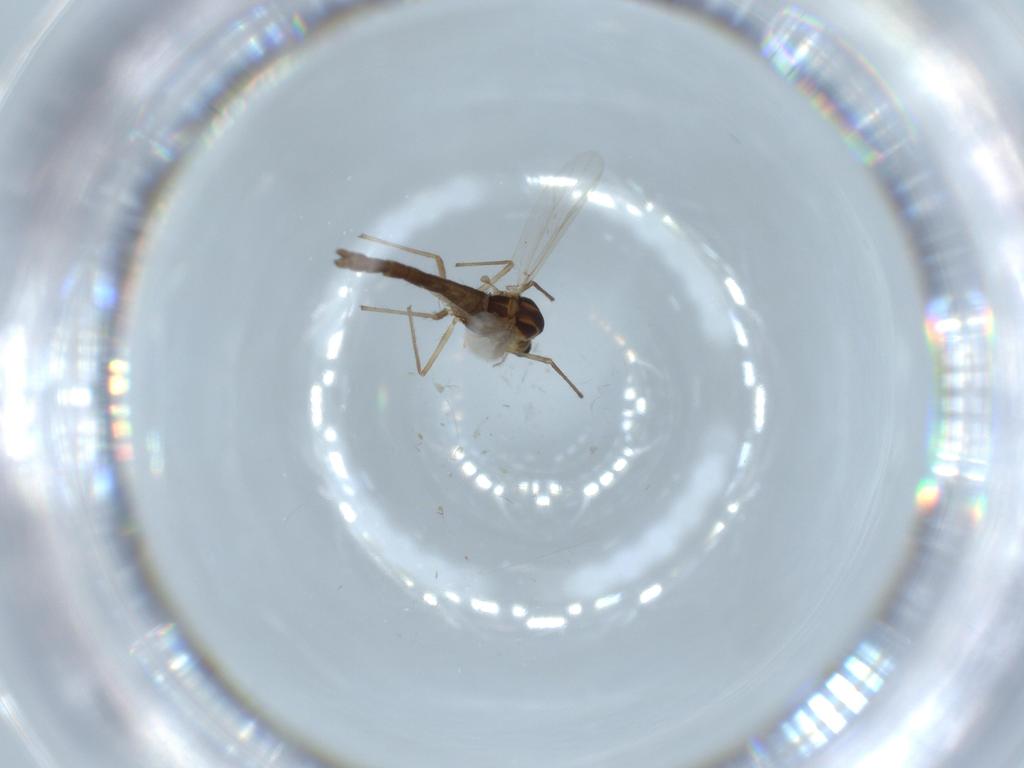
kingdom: Animalia
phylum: Arthropoda
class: Insecta
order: Diptera
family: Chironomidae
